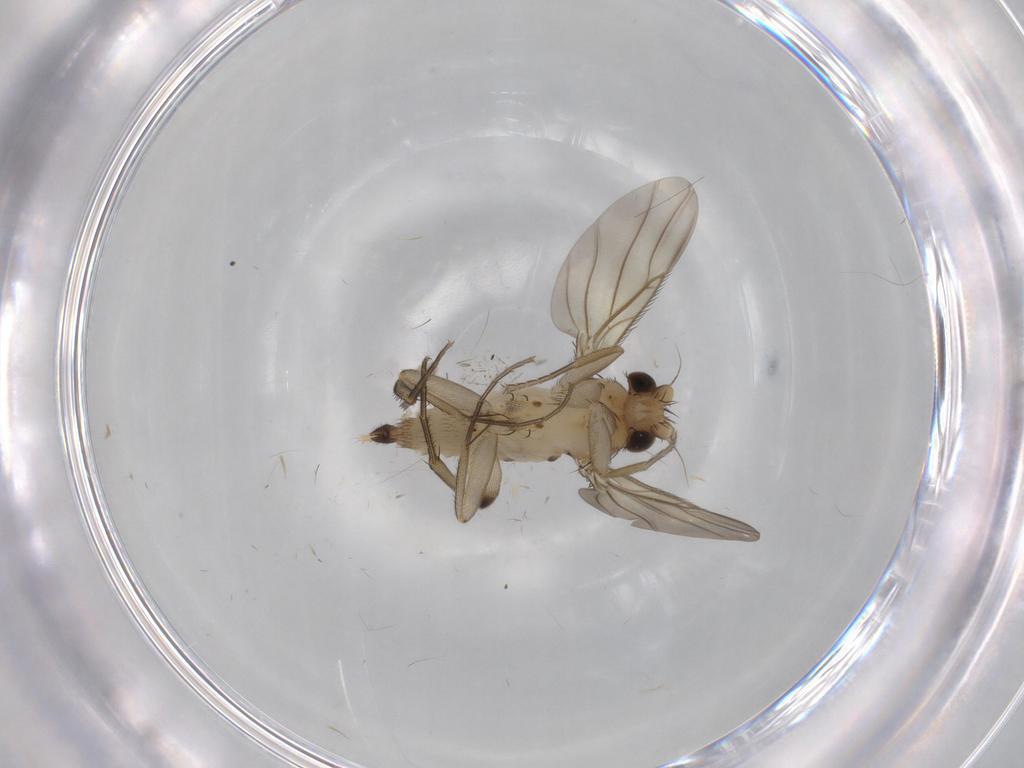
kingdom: Animalia
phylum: Arthropoda
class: Insecta
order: Diptera
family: Phoridae
